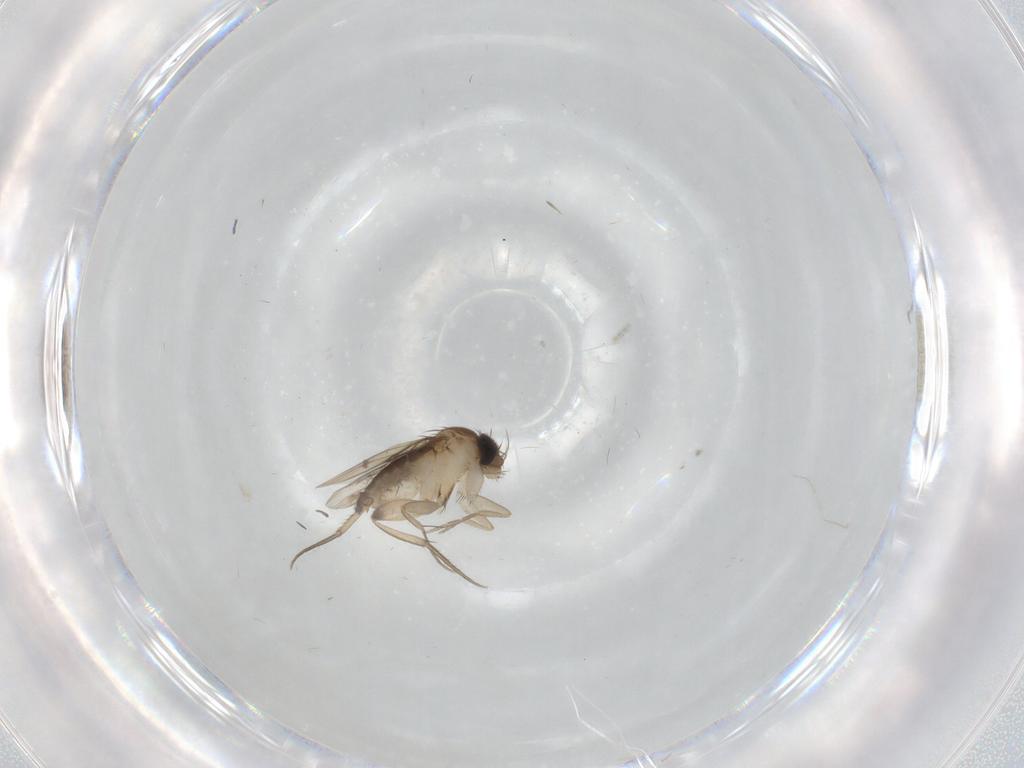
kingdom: Animalia
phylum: Arthropoda
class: Insecta
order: Diptera
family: Phoridae
